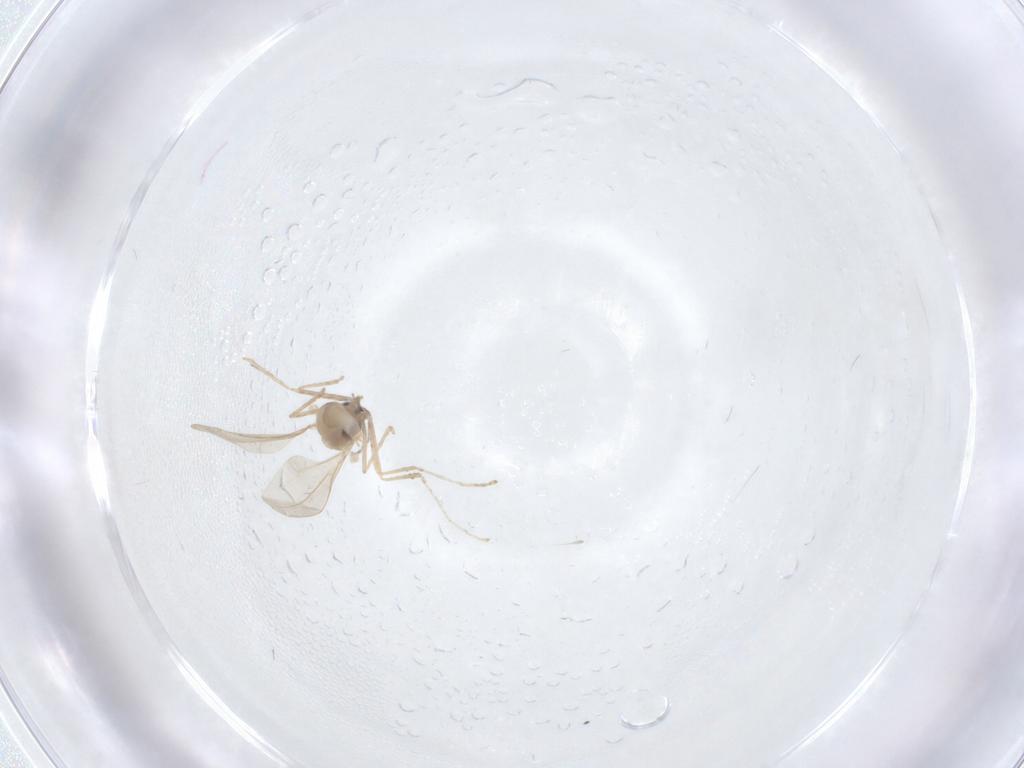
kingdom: Animalia
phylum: Arthropoda
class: Insecta
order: Diptera
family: Cecidomyiidae
